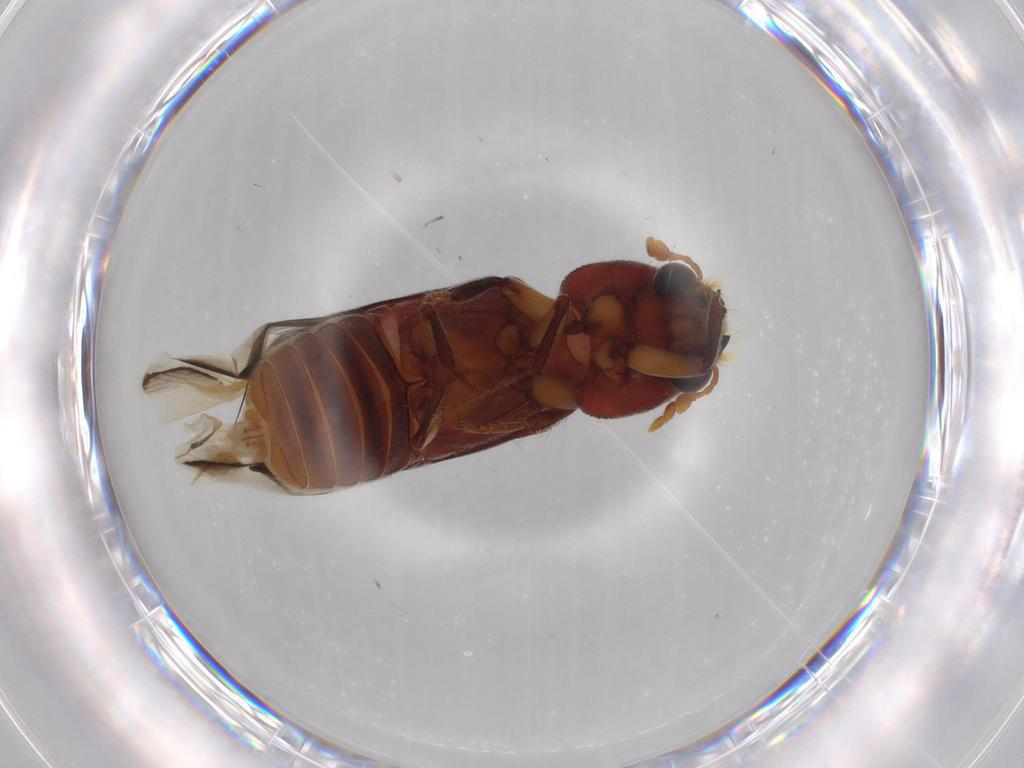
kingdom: Animalia
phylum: Arthropoda
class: Insecta
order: Coleoptera
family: Bostrichidae
